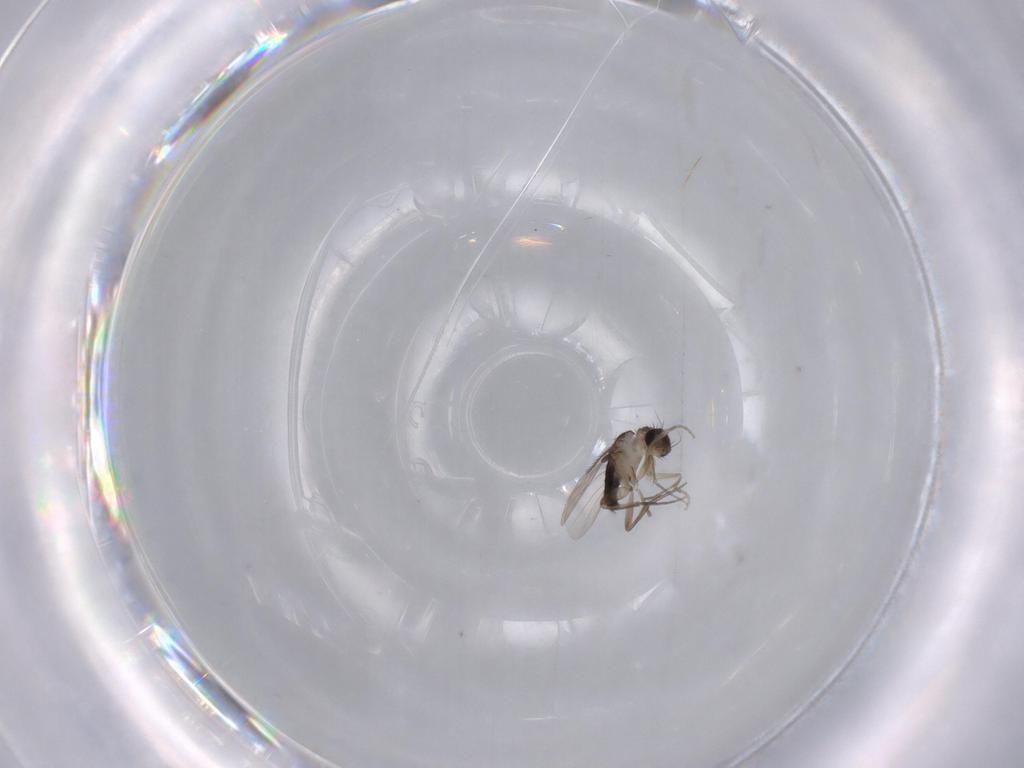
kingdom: Animalia
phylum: Arthropoda
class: Insecta
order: Diptera
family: Phoridae
